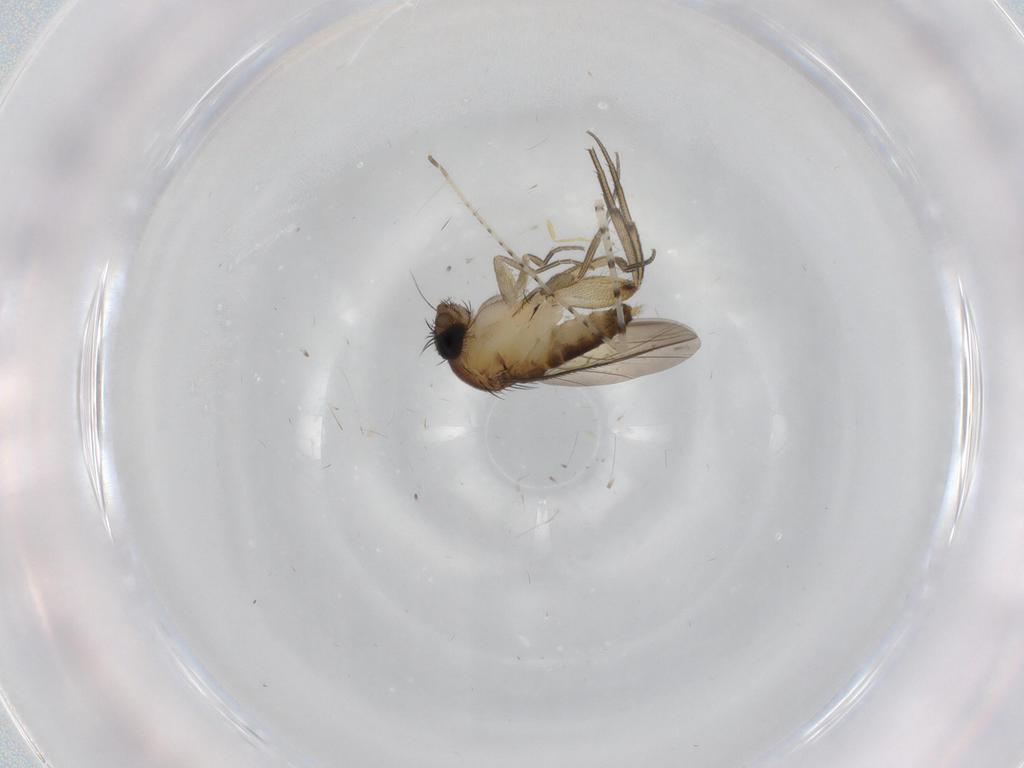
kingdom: Animalia
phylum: Arthropoda
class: Insecta
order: Diptera
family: Phoridae
